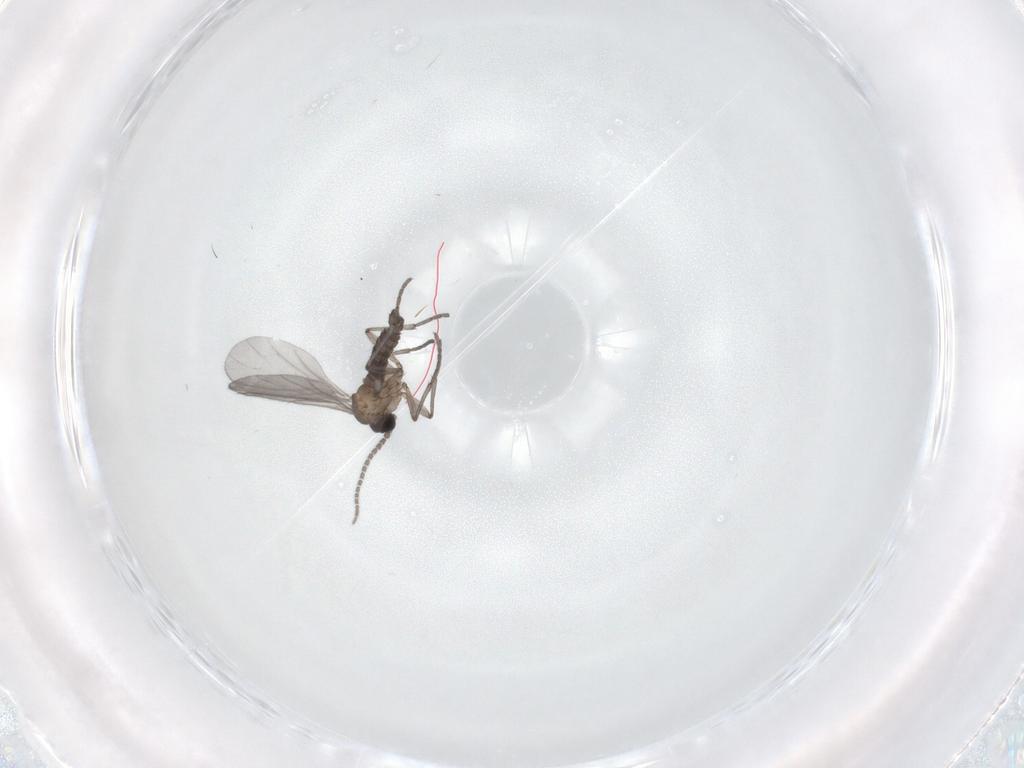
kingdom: Animalia
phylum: Arthropoda
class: Insecta
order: Diptera
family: Sciaridae
